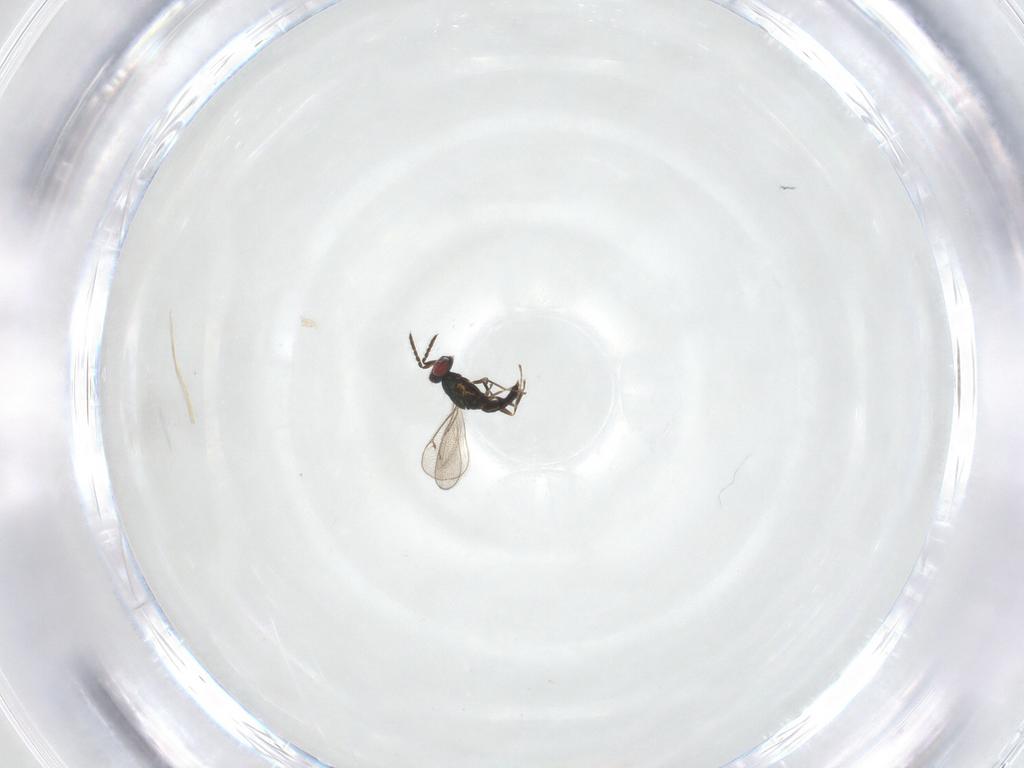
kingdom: Animalia
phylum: Arthropoda
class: Insecta
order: Hymenoptera
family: Eulophidae
